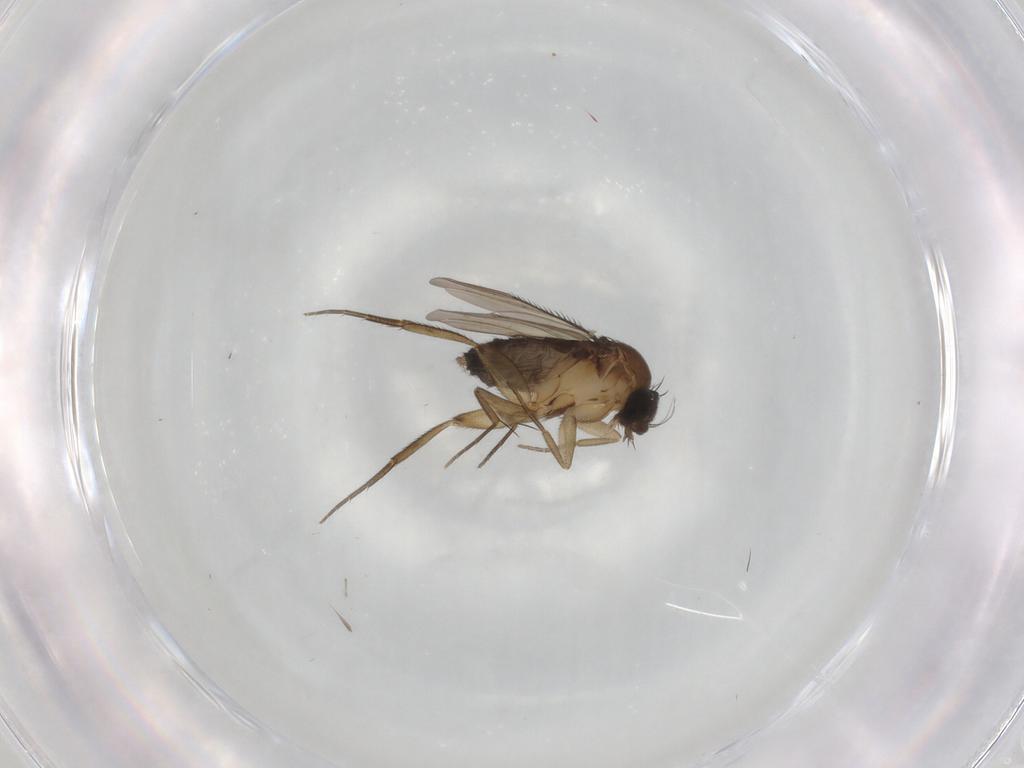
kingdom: Animalia
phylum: Arthropoda
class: Insecta
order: Diptera
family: Phoridae
